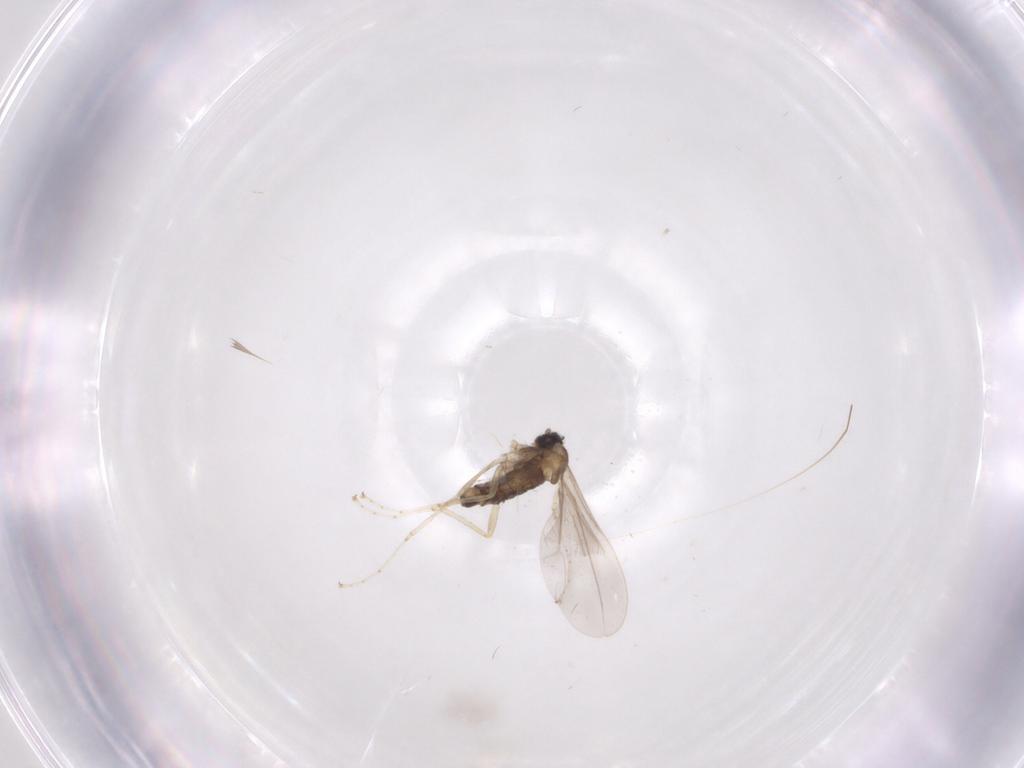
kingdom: Animalia
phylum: Arthropoda
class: Insecta
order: Diptera
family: Cecidomyiidae
